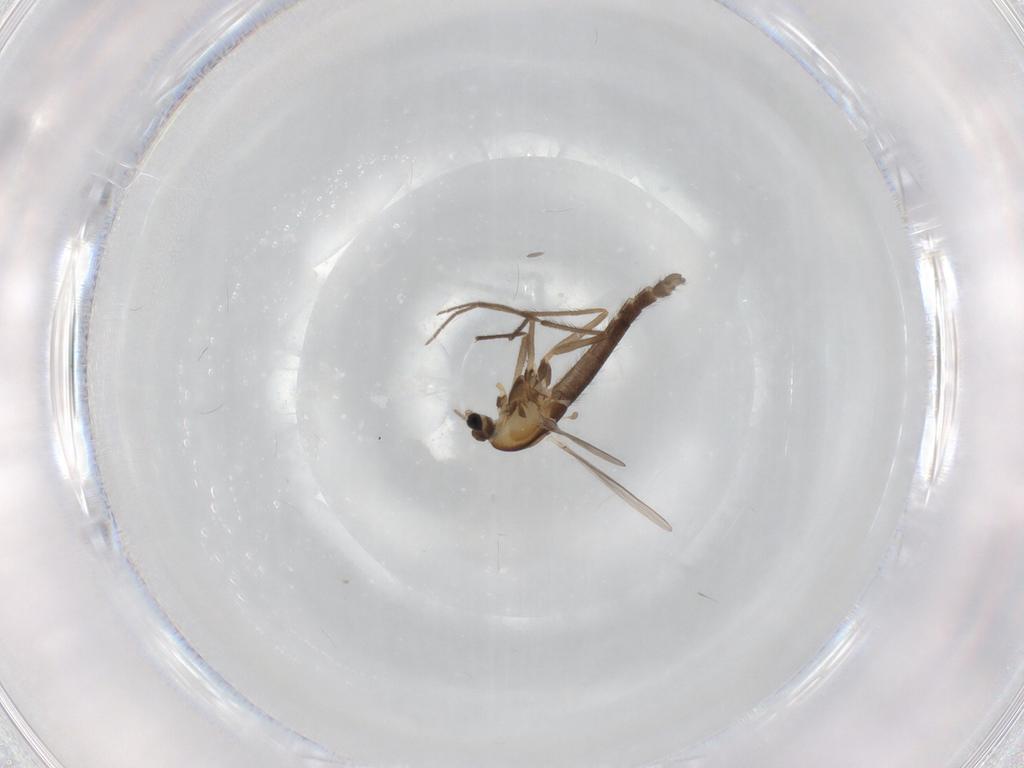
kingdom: Animalia
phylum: Arthropoda
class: Insecta
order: Diptera
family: Chironomidae
